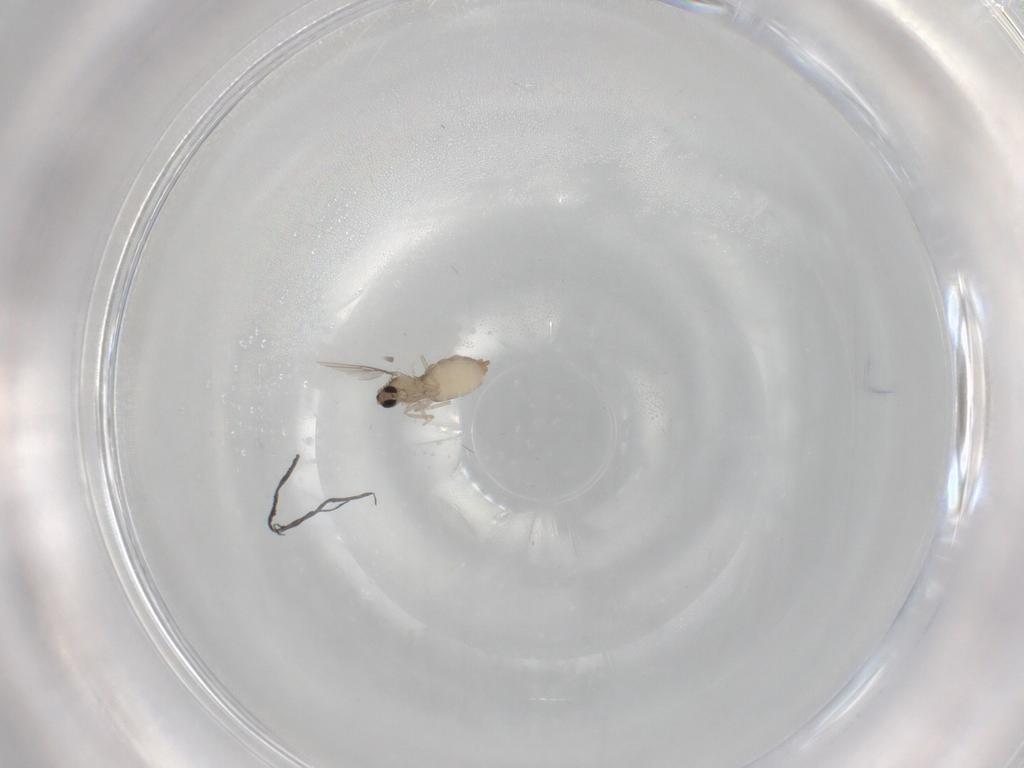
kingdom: Animalia
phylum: Arthropoda
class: Insecta
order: Diptera
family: Cecidomyiidae
